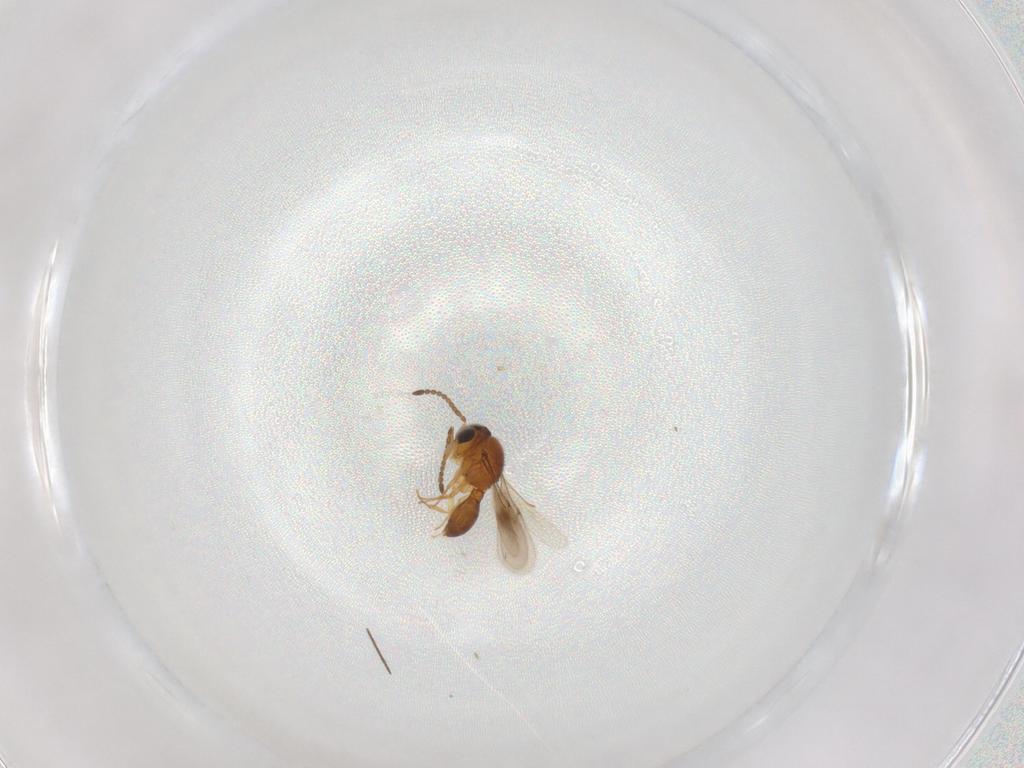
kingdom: Animalia
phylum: Arthropoda
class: Insecta
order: Hymenoptera
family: Scelionidae
